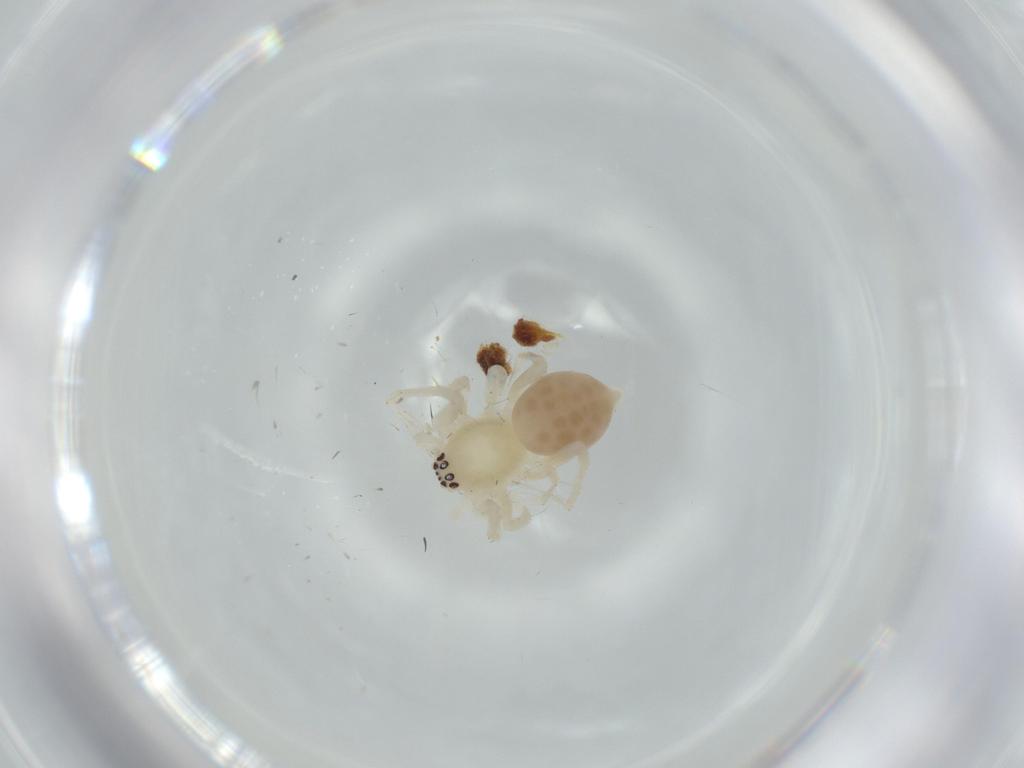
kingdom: Animalia
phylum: Arthropoda
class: Arachnida
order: Araneae
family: Anyphaenidae
